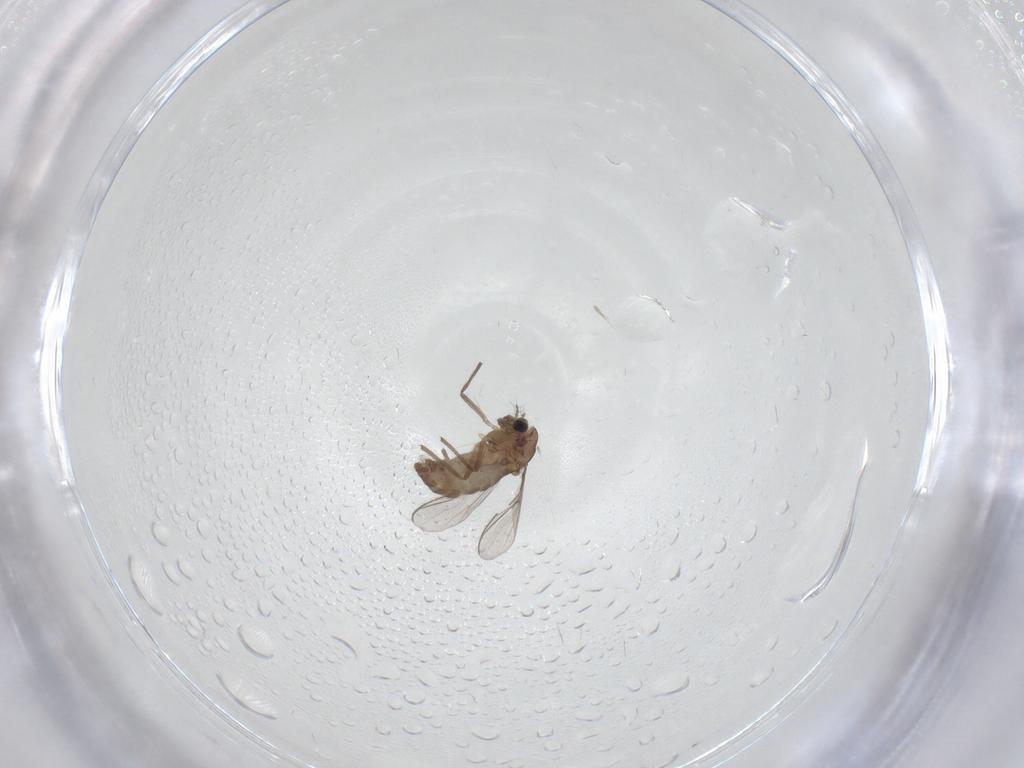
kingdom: Animalia
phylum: Arthropoda
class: Insecta
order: Diptera
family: Chironomidae
